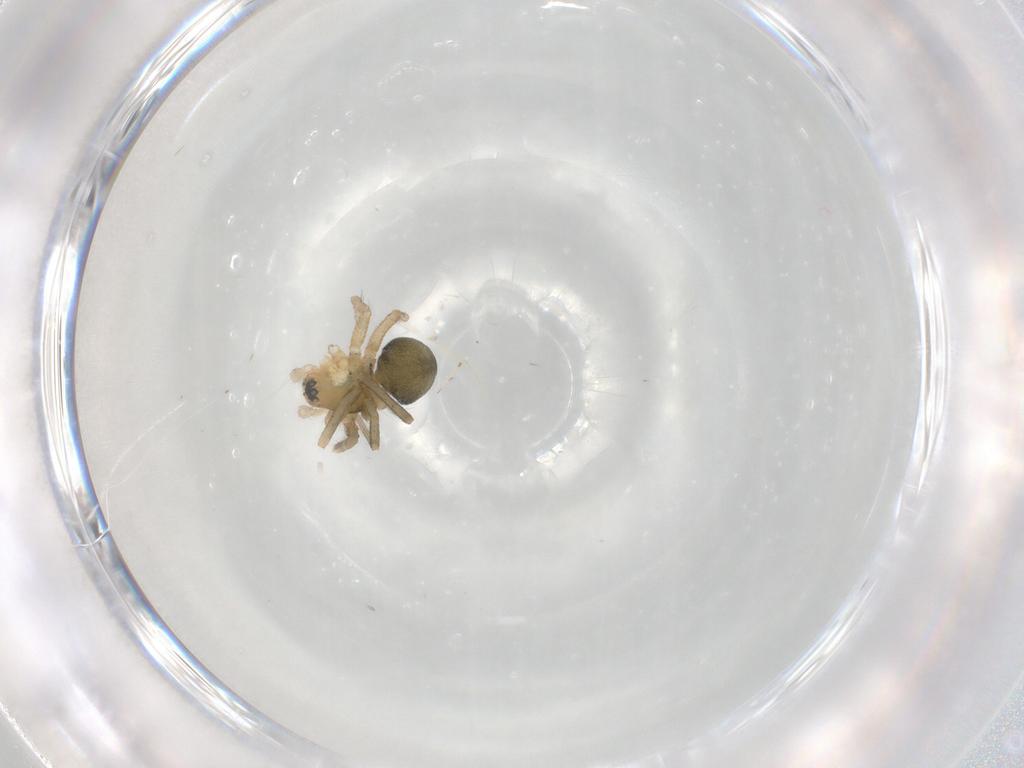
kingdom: Animalia
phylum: Arthropoda
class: Arachnida
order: Araneae
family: Linyphiidae
